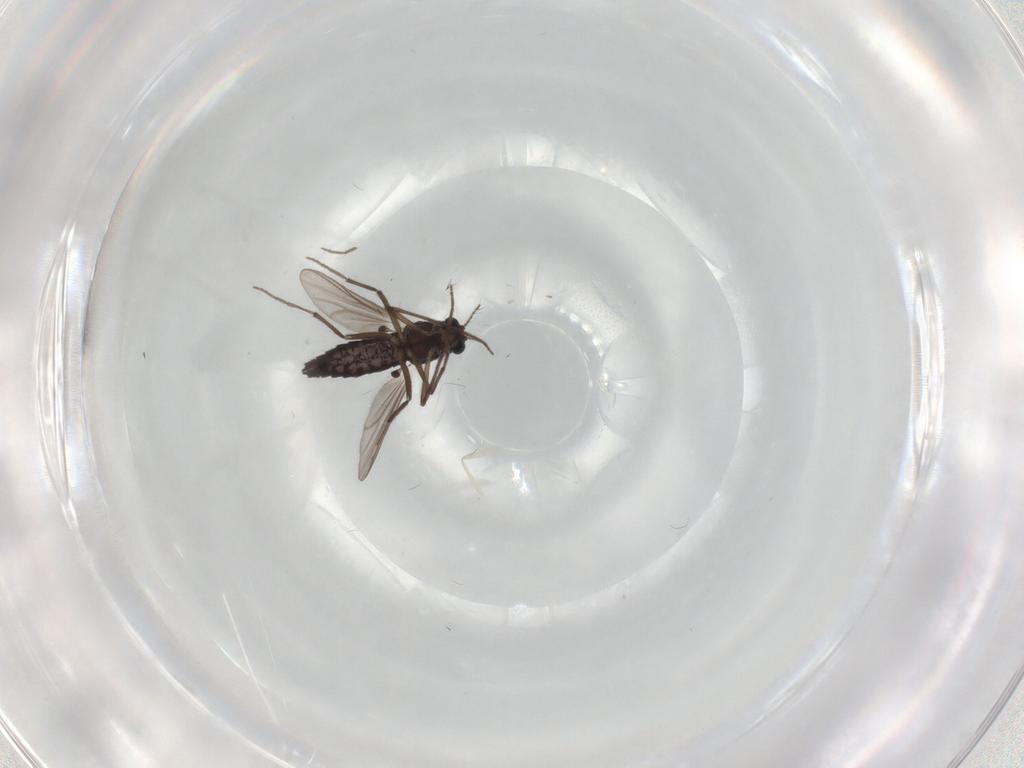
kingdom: Animalia
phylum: Arthropoda
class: Insecta
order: Diptera
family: Chironomidae
